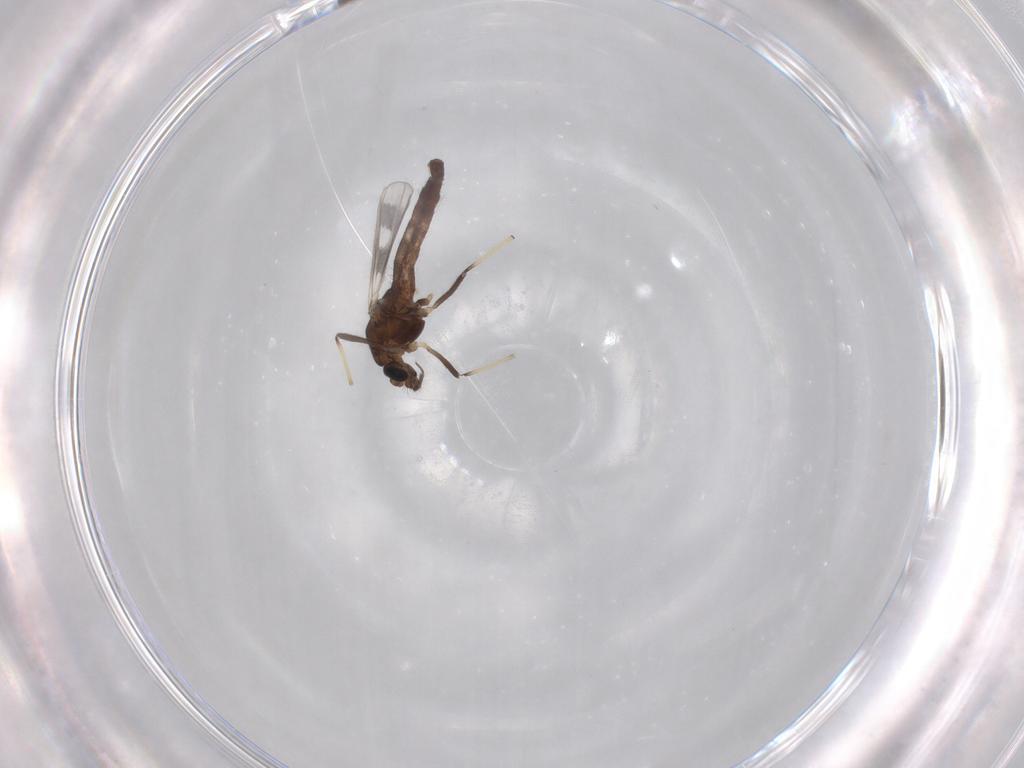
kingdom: Animalia
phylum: Arthropoda
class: Insecta
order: Diptera
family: Chironomidae
